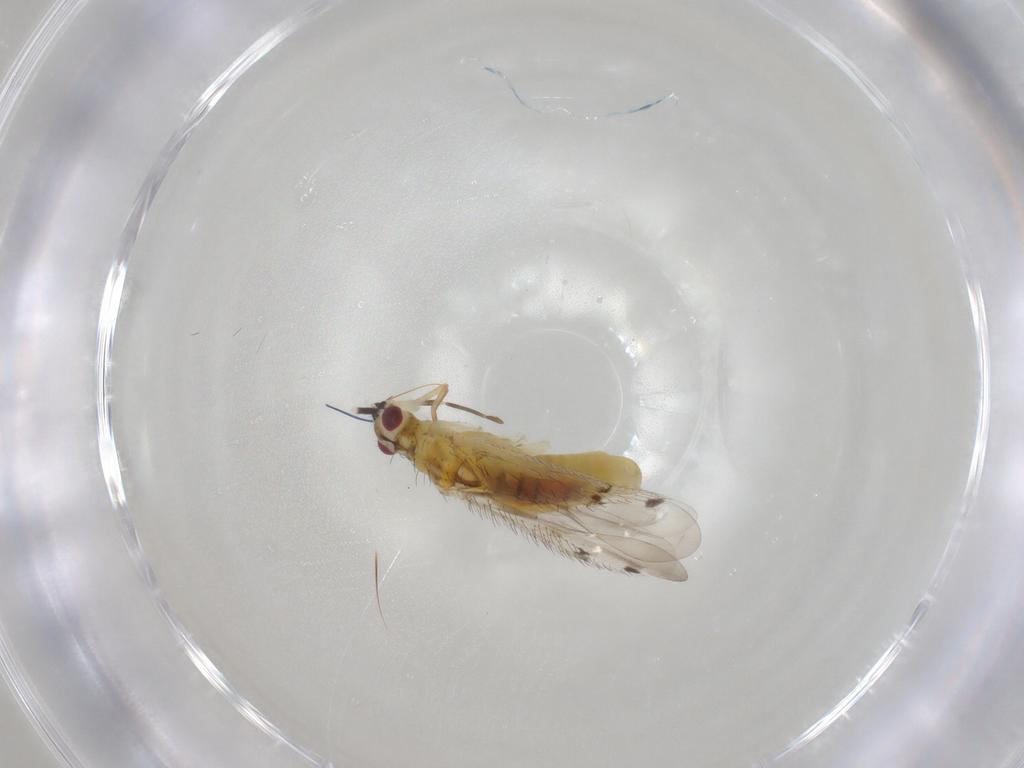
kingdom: Animalia
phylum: Arthropoda
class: Insecta
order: Hemiptera
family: Miridae
